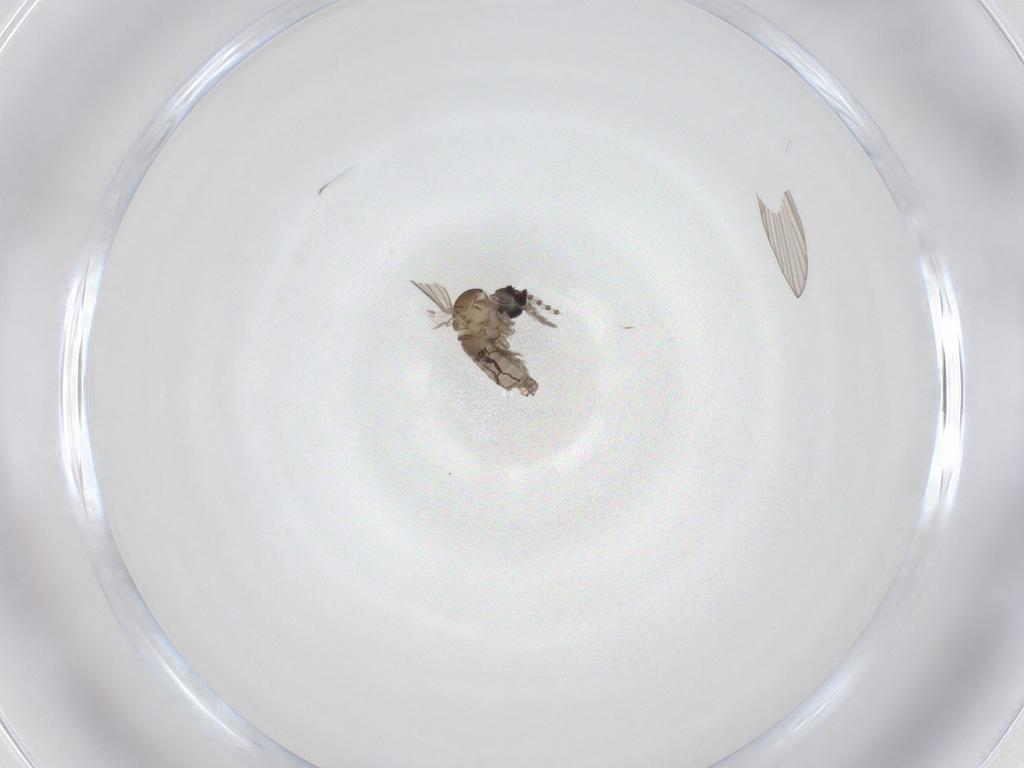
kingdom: Animalia
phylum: Arthropoda
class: Insecta
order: Diptera
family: Psychodidae
